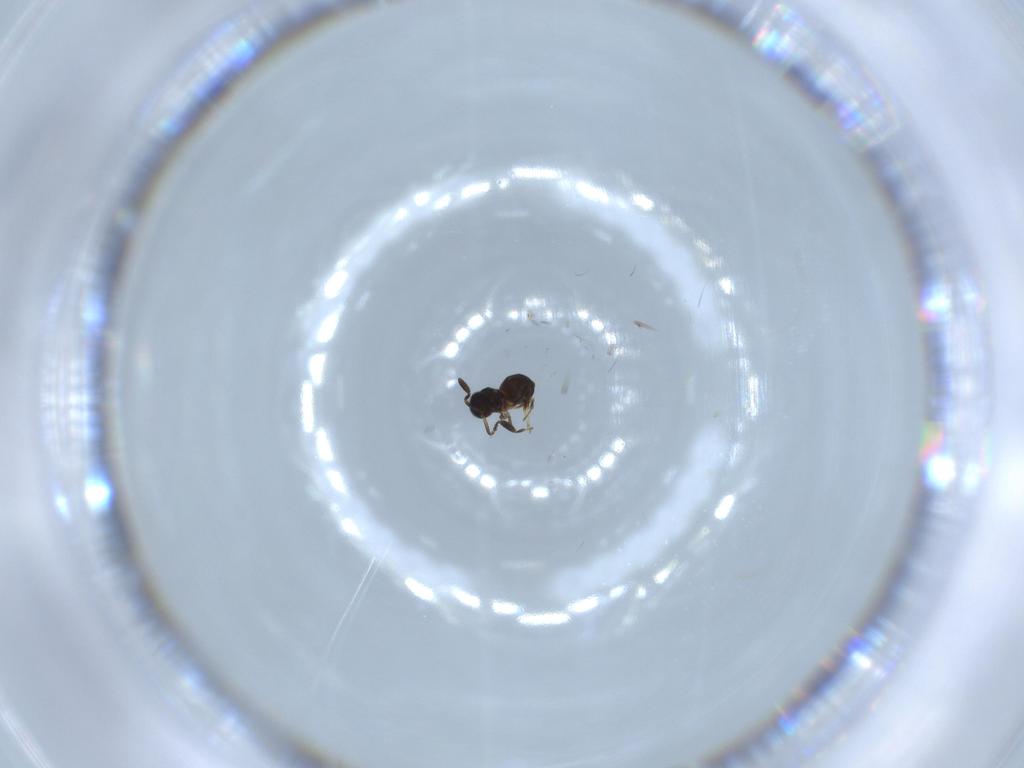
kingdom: Animalia
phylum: Arthropoda
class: Insecta
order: Hymenoptera
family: Scelionidae
